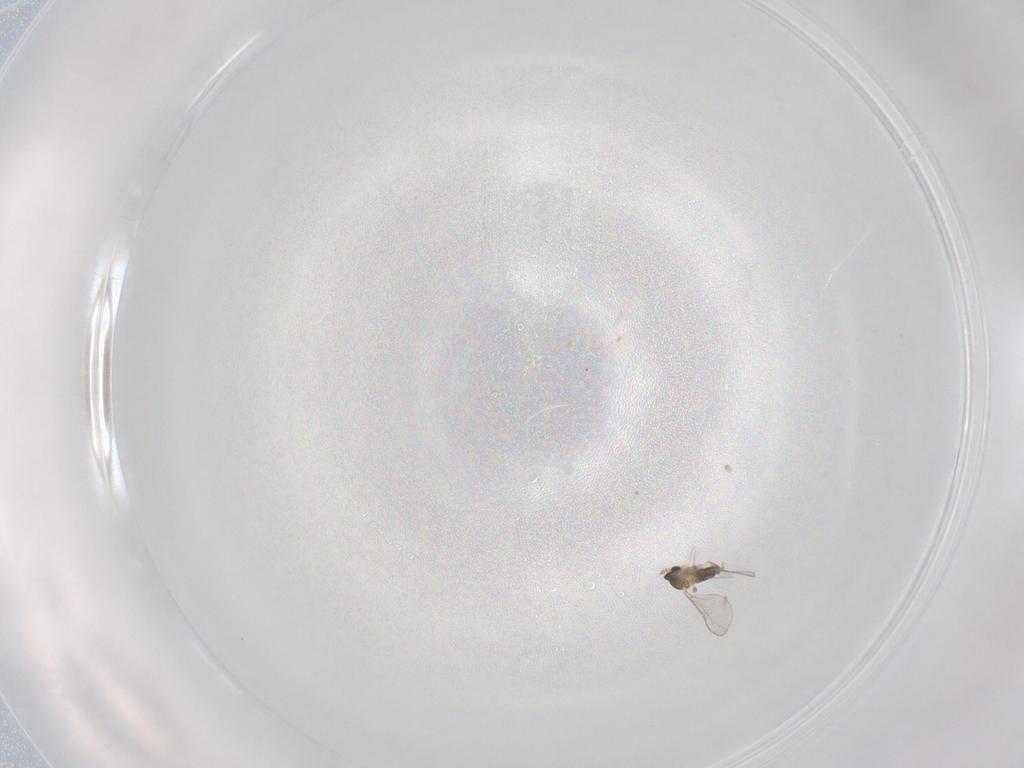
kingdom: Animalia
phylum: Arthropoda
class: Insecta
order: Diptera
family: Cecidomyiidae
